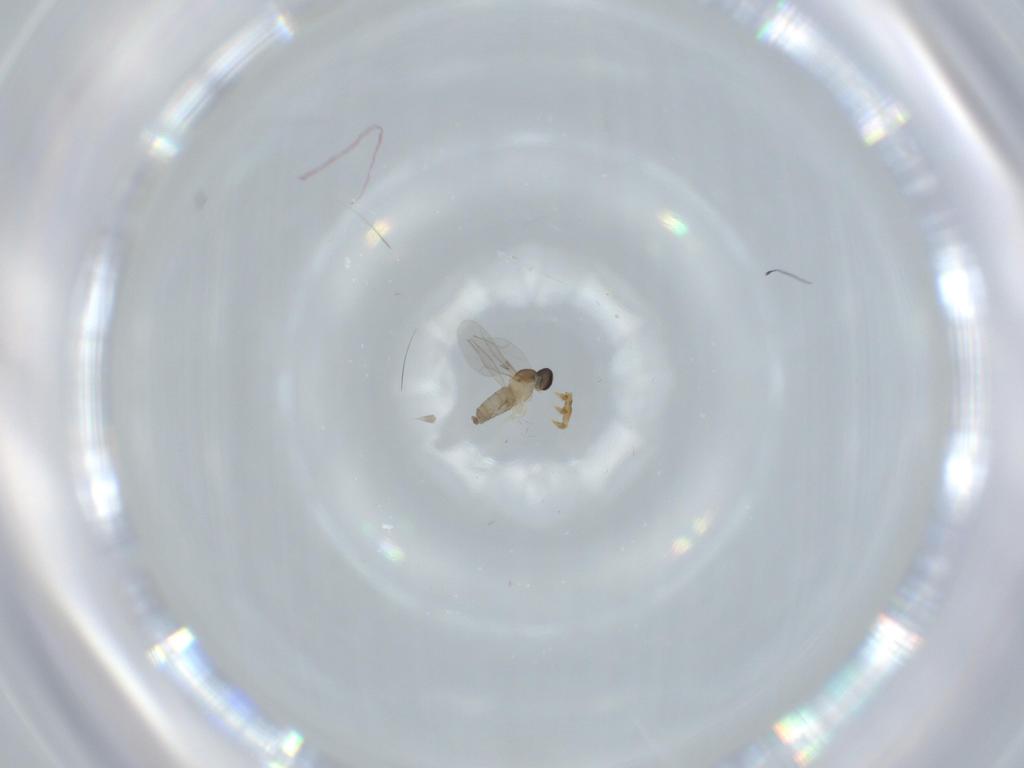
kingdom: Animalia
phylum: Arthropoda
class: Insecta
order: Diptera
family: Cecidomyiidae
